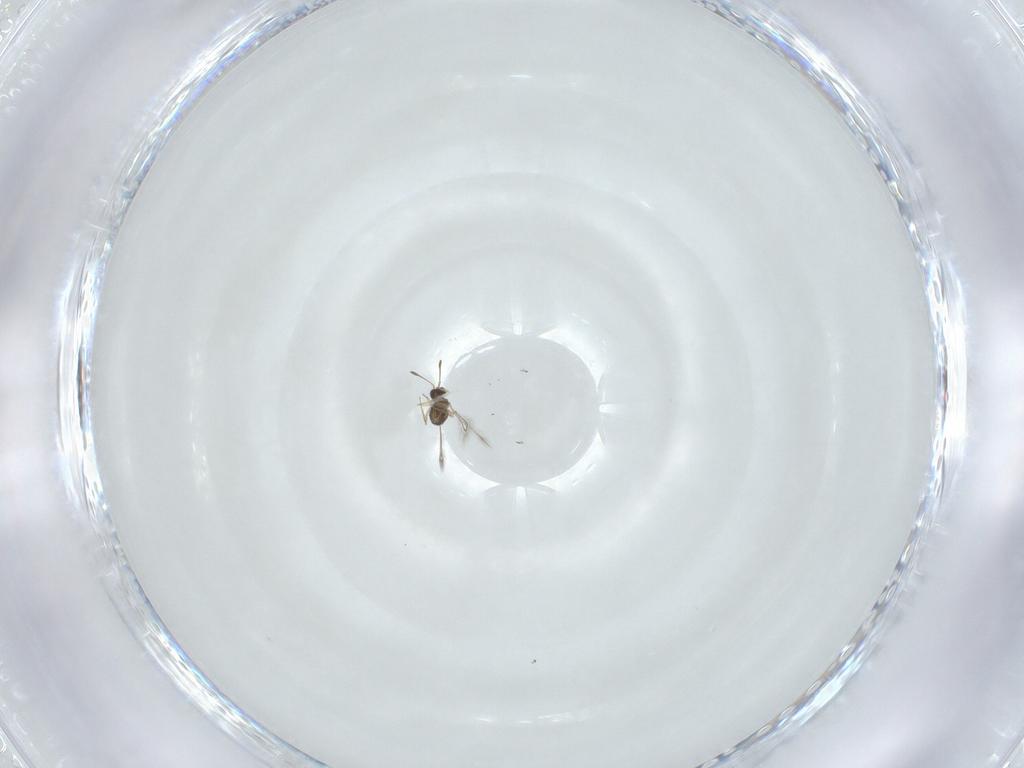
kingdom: Animalia
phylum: Arthropoda
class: Insecta
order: Hymenoptera
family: Formicidae
